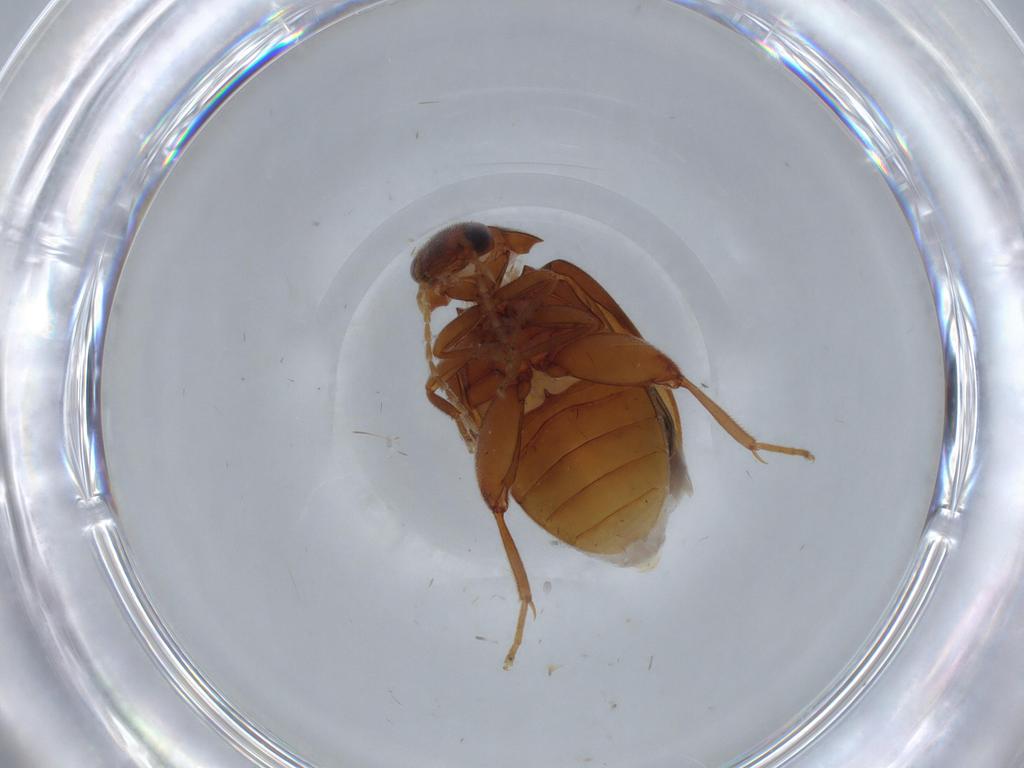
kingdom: Animalia
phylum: Arthropoda
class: Insecta
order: Coleoptera
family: Scirtidae
